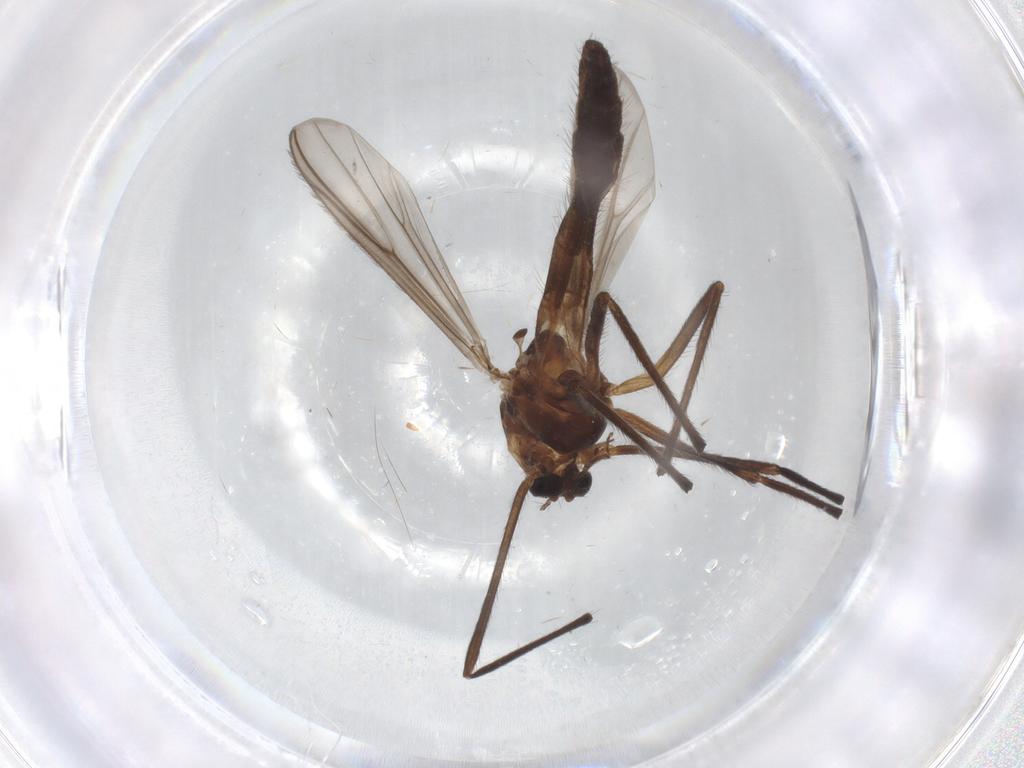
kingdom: Animalia
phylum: Arthropoda
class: Insecta
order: Diptera
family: Chironomidae
